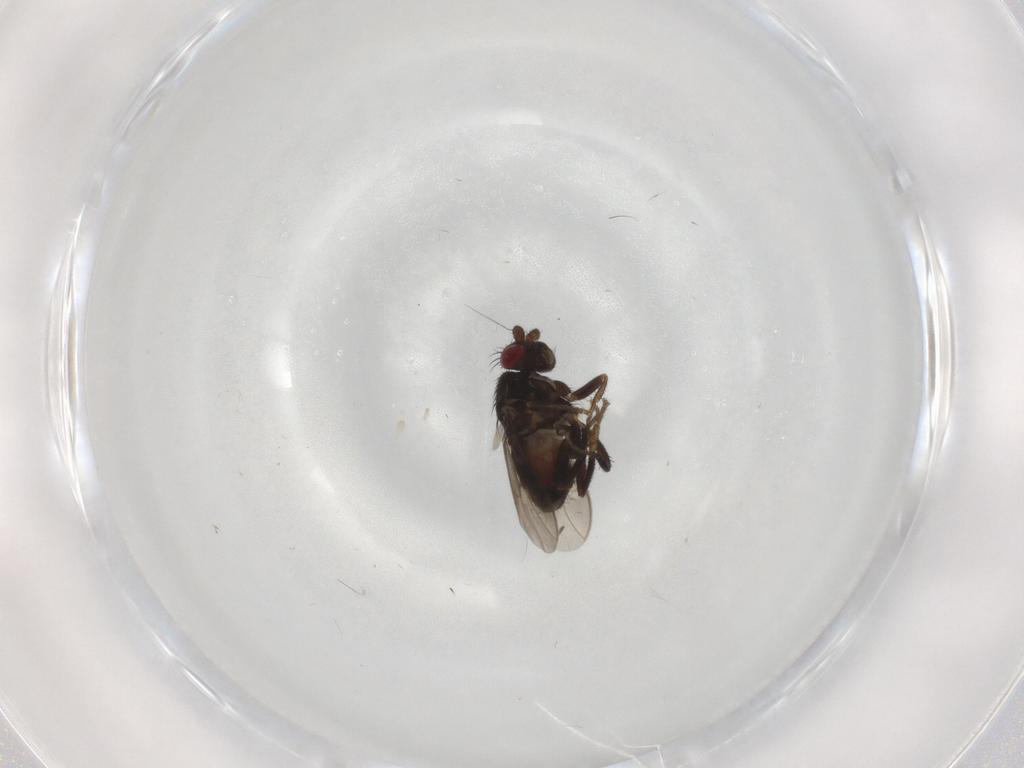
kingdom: Animalia
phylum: Arthropoda
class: Insecta
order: Diptera
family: Sphaeroceridae
